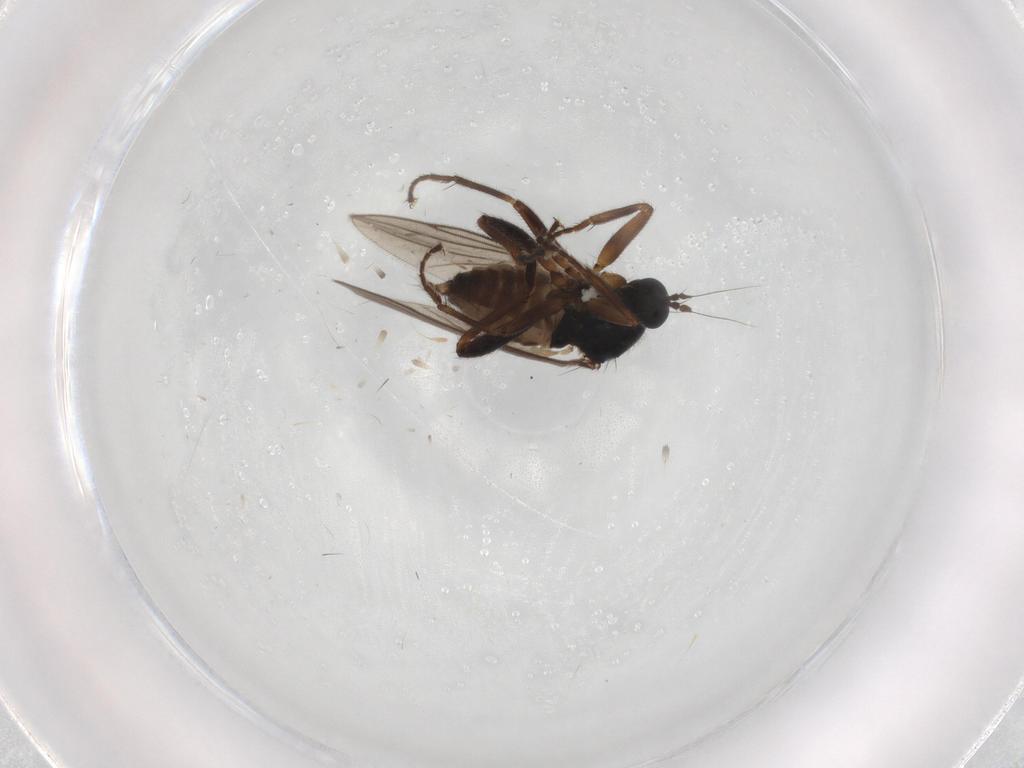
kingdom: Animalia
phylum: Arthropoda
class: Insecta
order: Diptera
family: Hybotidae
